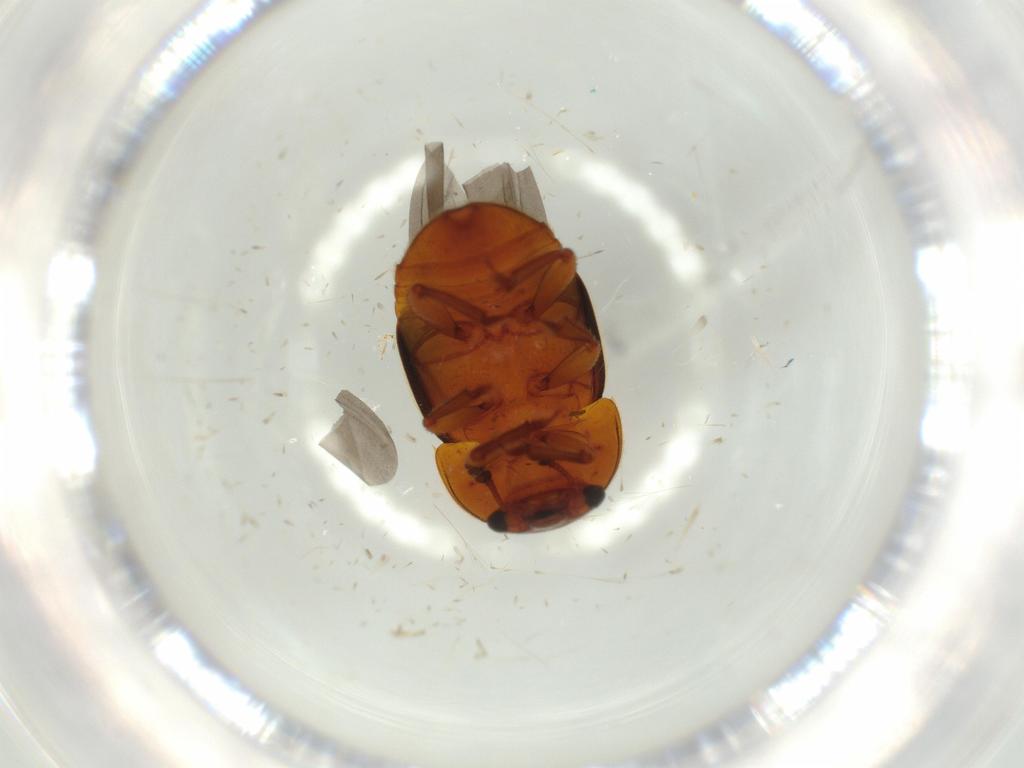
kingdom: Animalia
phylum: Arthropoda
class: Insecta
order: Coleoptera
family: Nitidulidae
